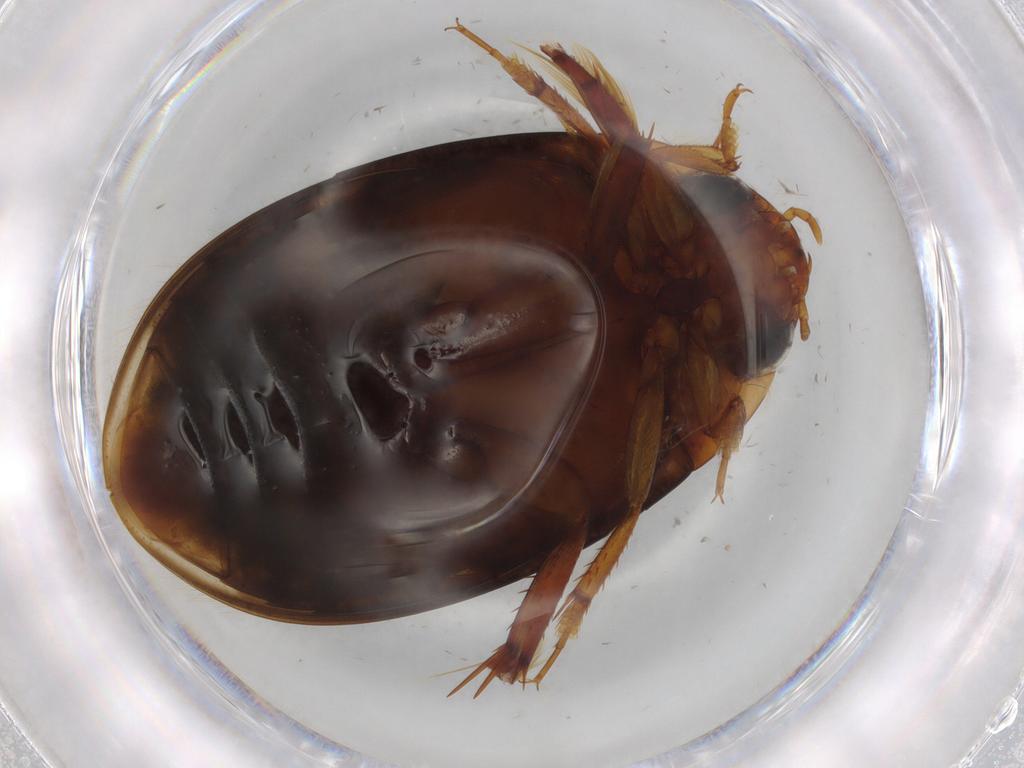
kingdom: Animalia
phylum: Arthropoda
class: Insecta
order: Coleoptera
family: Dytiscidae
